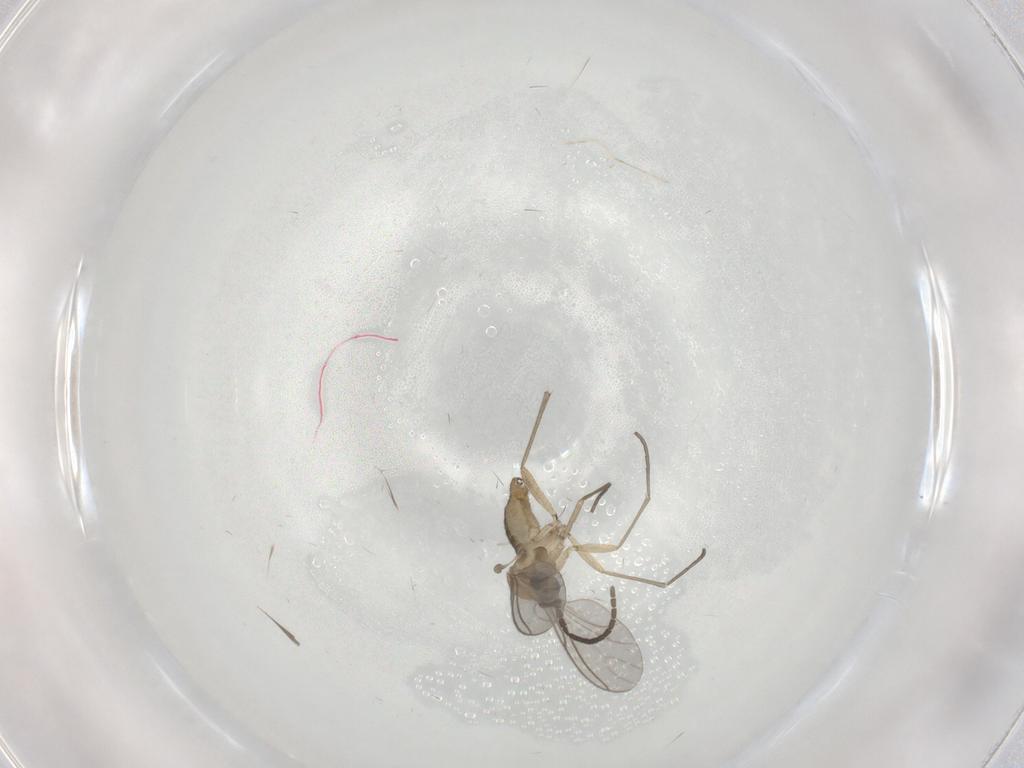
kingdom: Animalia
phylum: Arthropoda
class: Insecta
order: Diptera
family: Sciaridae
